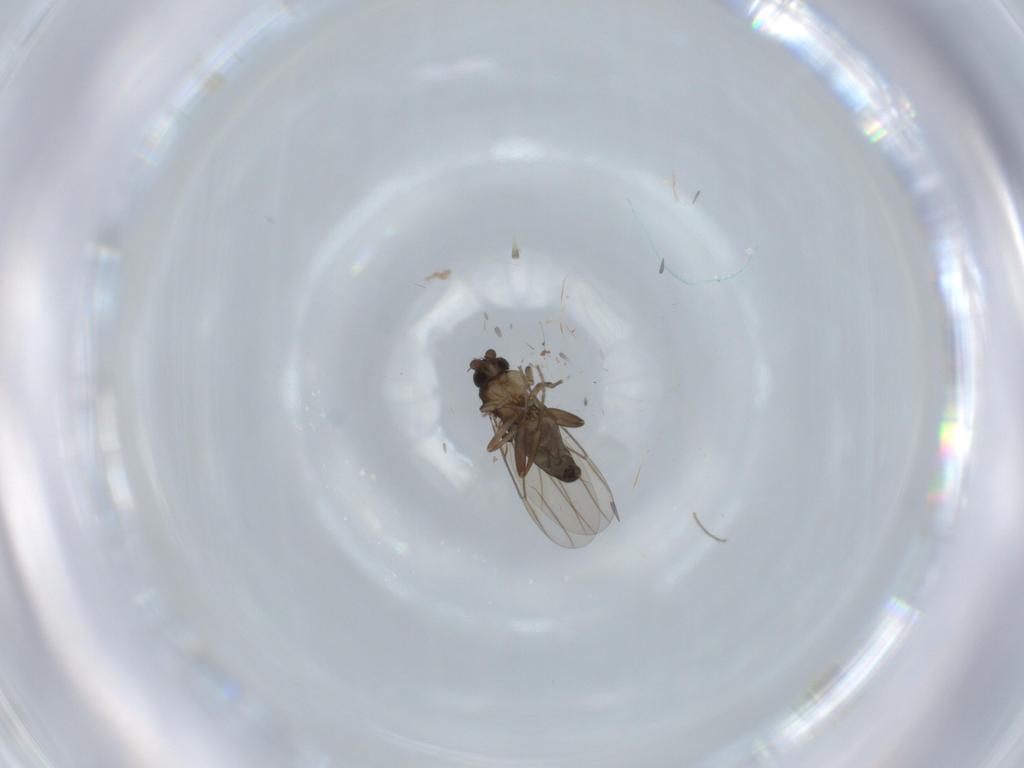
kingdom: Animalia
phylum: Arthropoda
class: Insecta
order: Diptera
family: Phoridae
